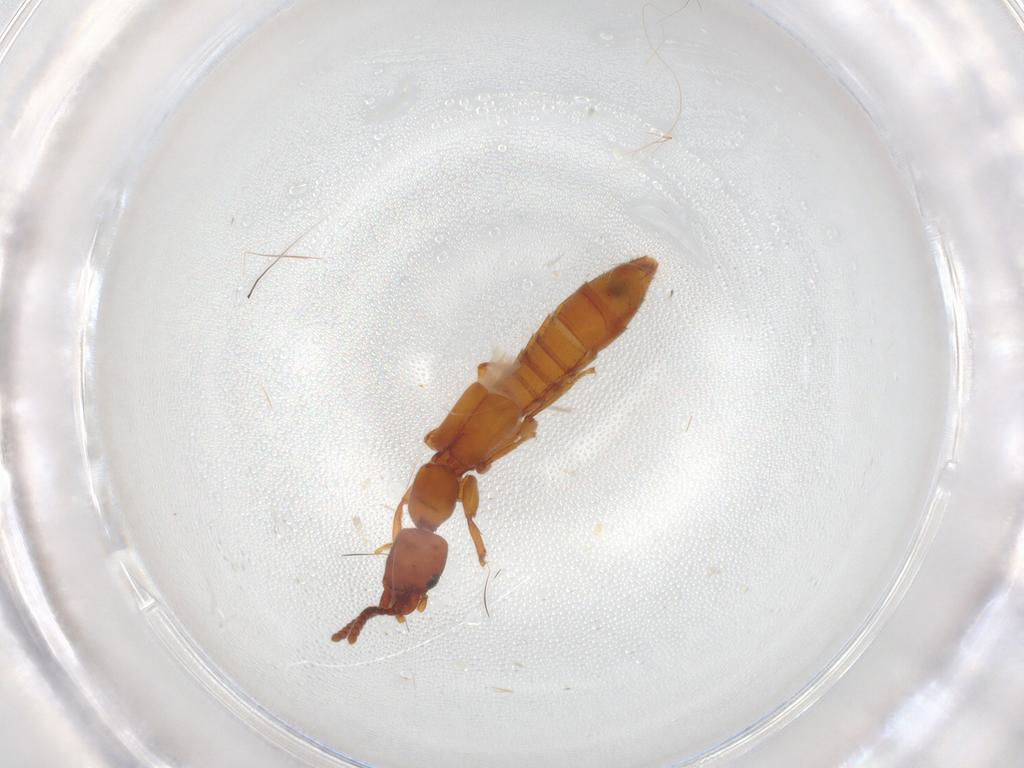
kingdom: Animalia
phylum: Arthropoda
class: Insecta
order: Coleoptera
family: Staphylinidae
